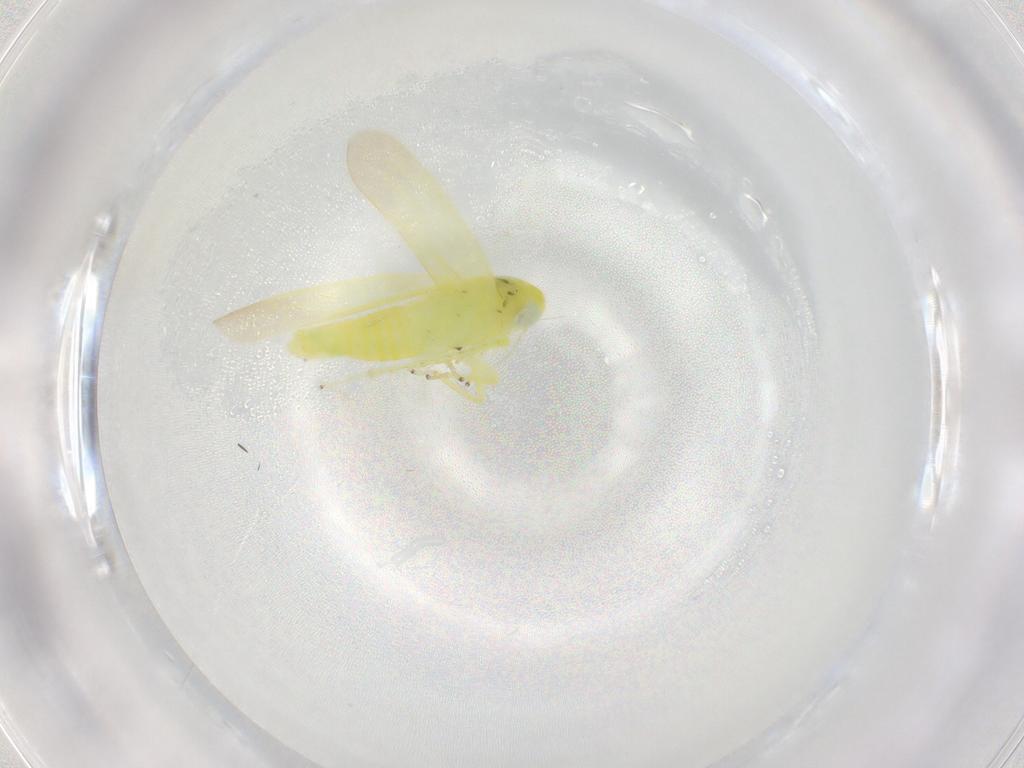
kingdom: Animalia
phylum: Arthropoda
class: Insecta
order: Hemiptera
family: Cicadellidae
